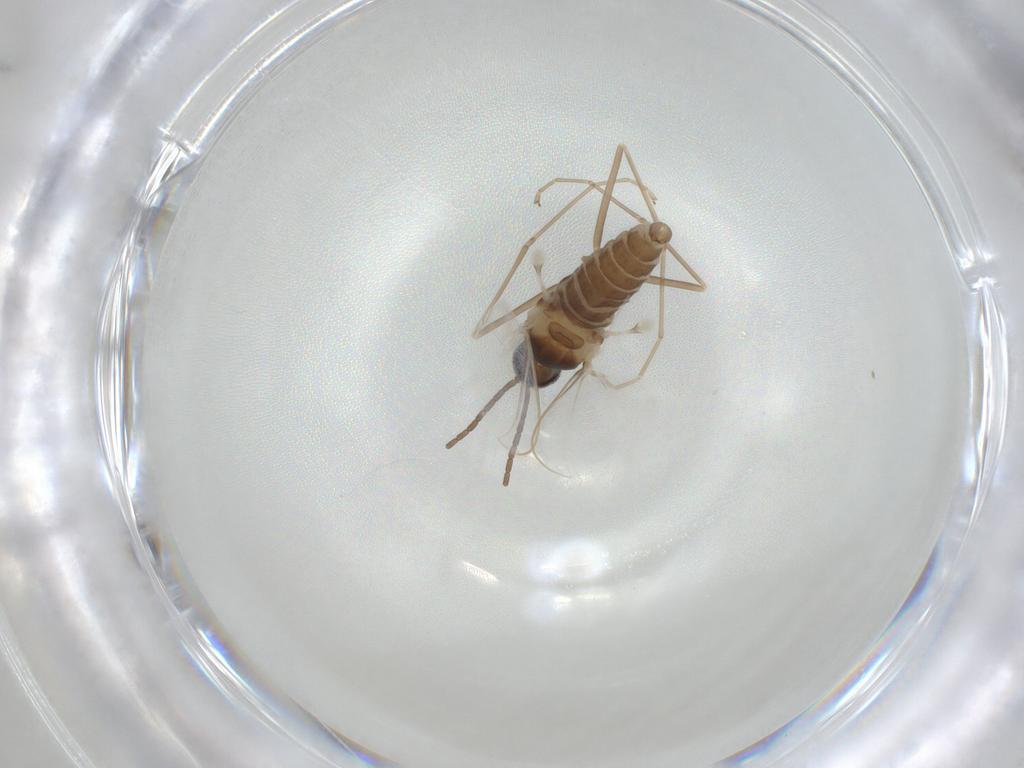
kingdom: Animalia
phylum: Arthropoda
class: Insecta
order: Diptera
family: Cecidomyiidae
